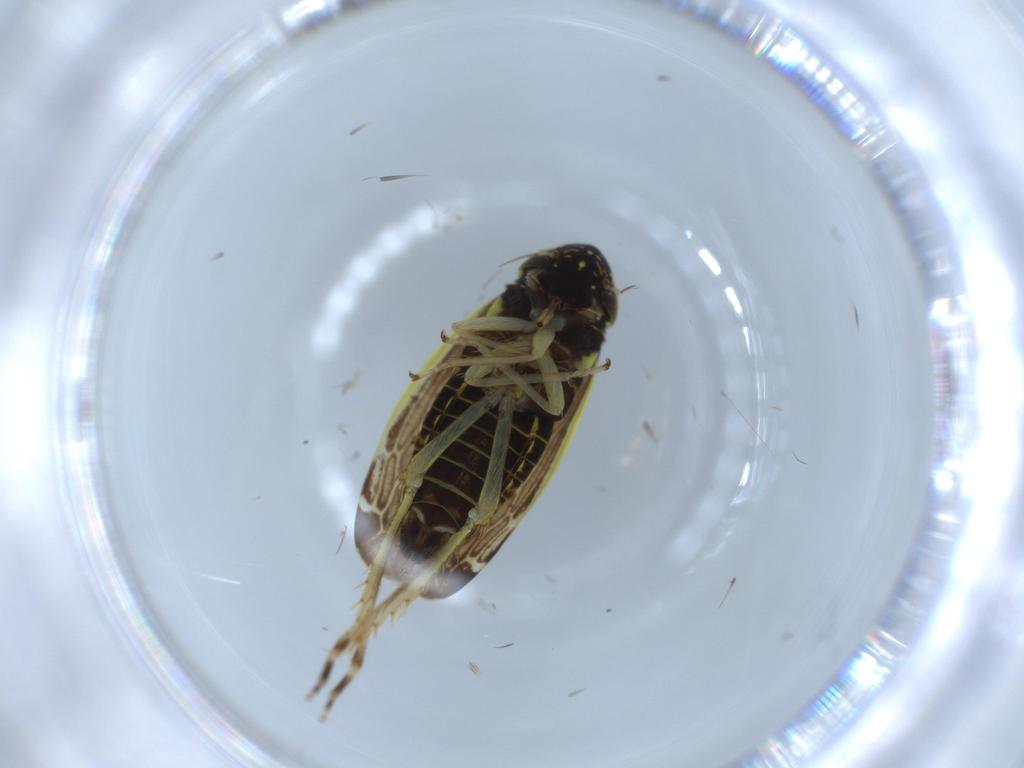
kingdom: Animalia
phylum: Arthropoda
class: Insecta
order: Hemiptera
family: Cicadellidae
